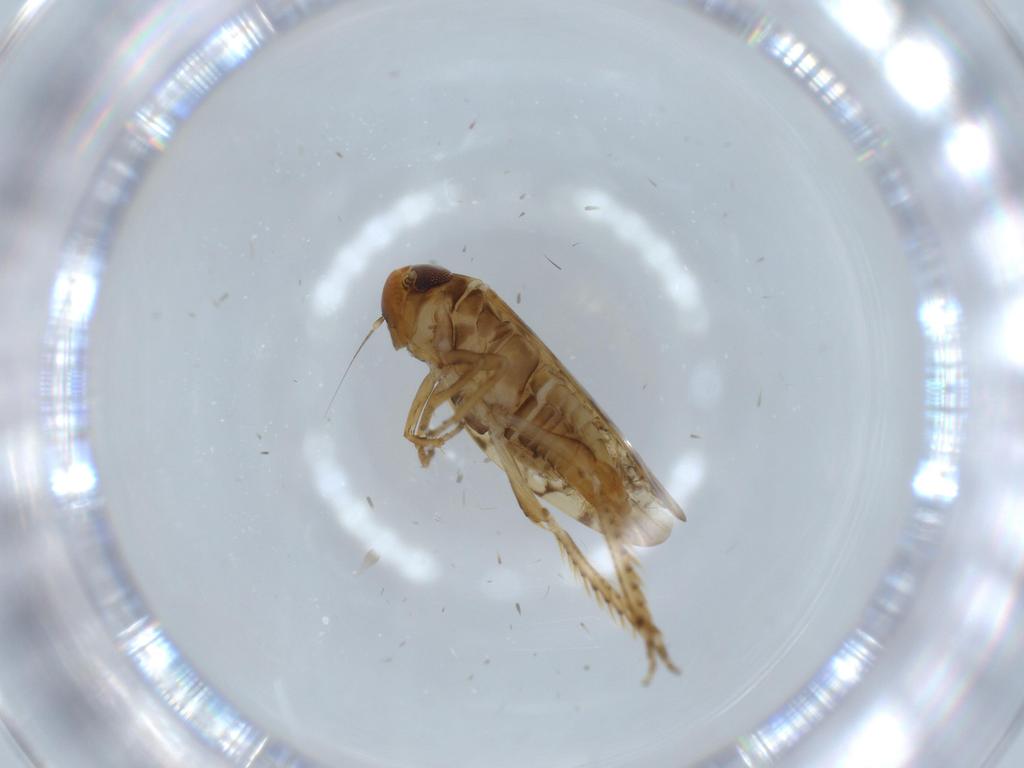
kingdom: Animalia
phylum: Arthropoda
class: Insecta
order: Hemiptera
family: Cicadellidae
